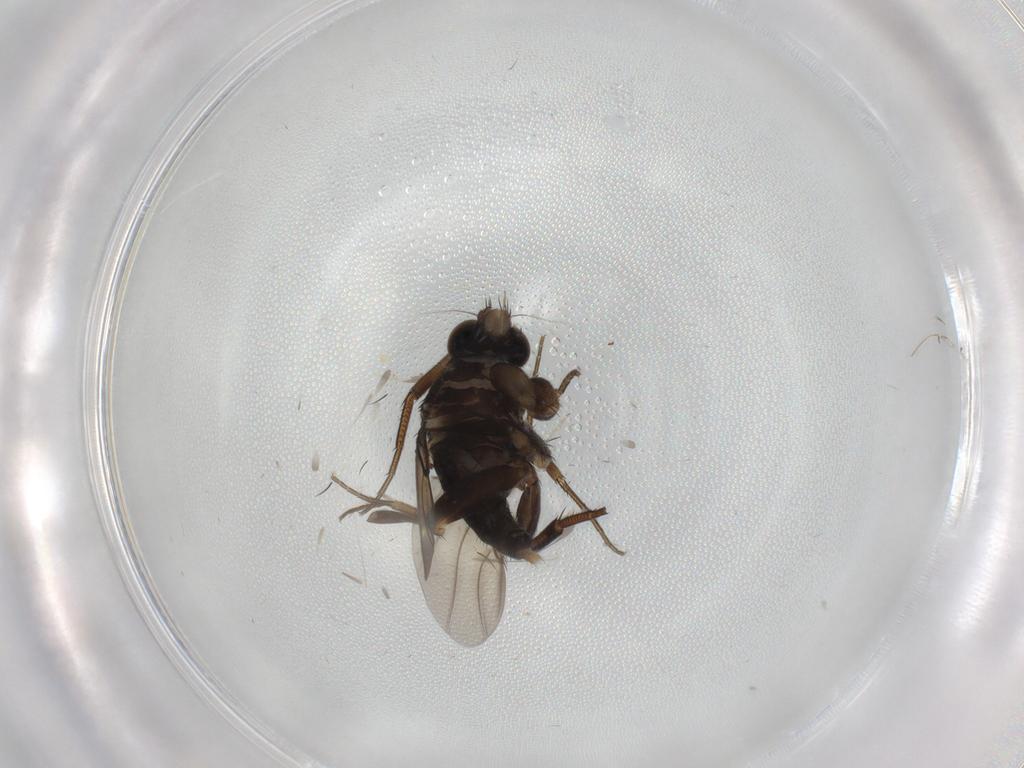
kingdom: Animalia
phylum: Arthropoda
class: Insecta
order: Diptera
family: Phoridae
